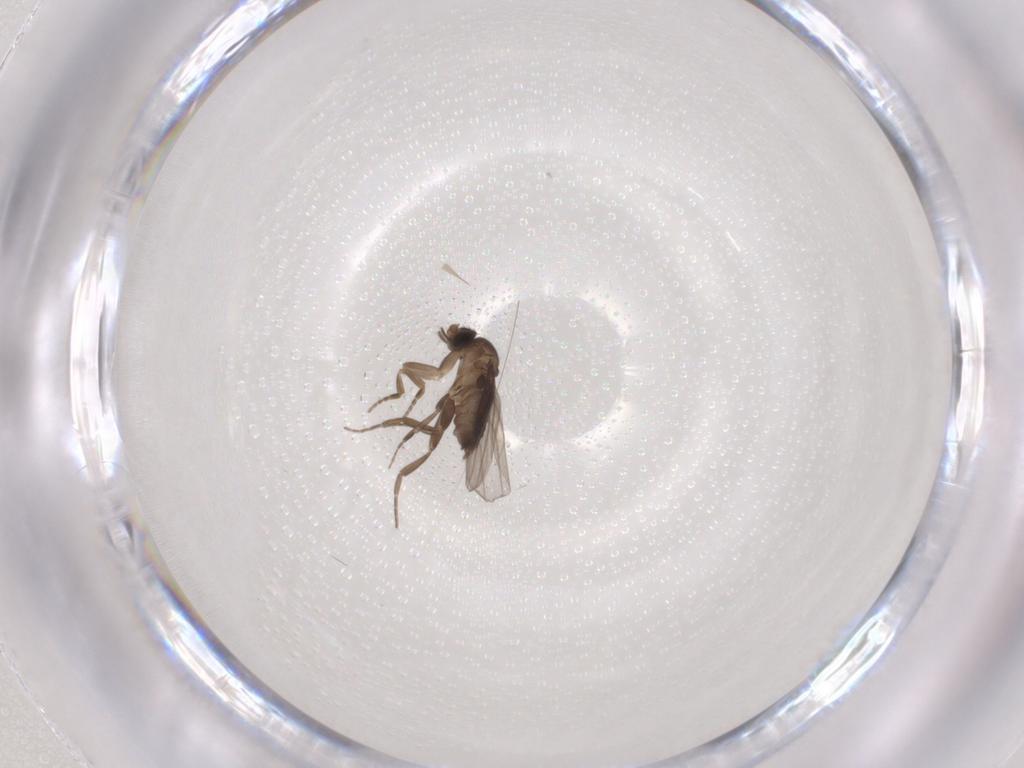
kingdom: Animalia
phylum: Arthropoda
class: Insecta
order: Diptera
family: Phoridae
